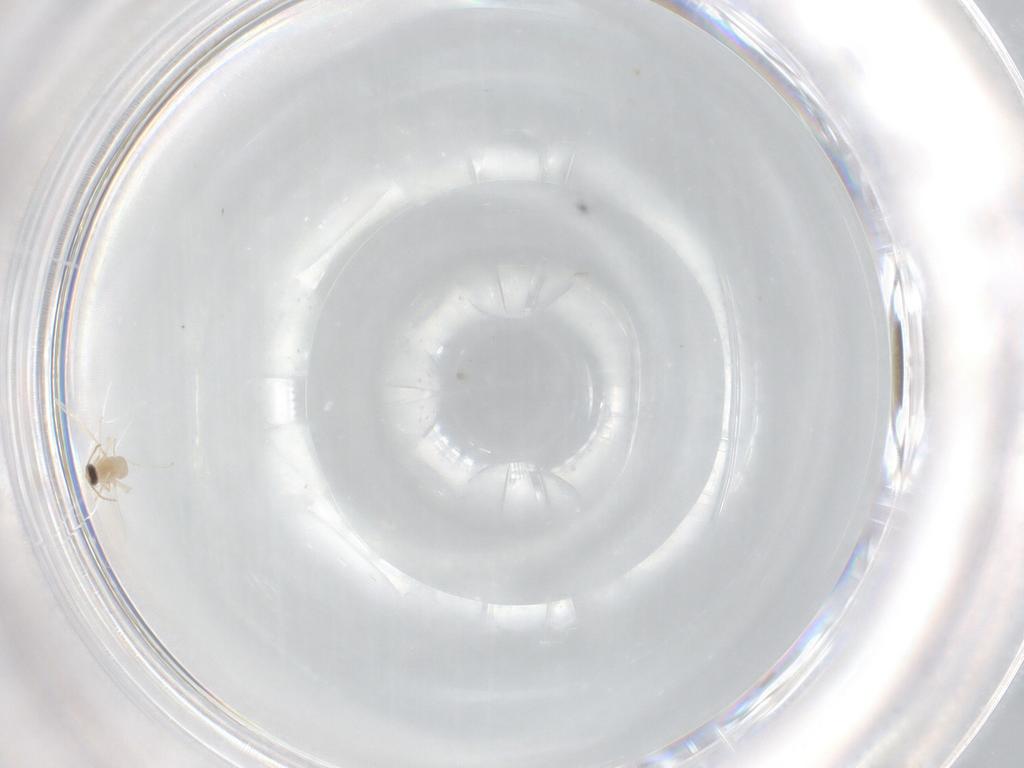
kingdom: Animalia
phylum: Arthropoda
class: Insecta
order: Diptera
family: Cecidomyiidae
